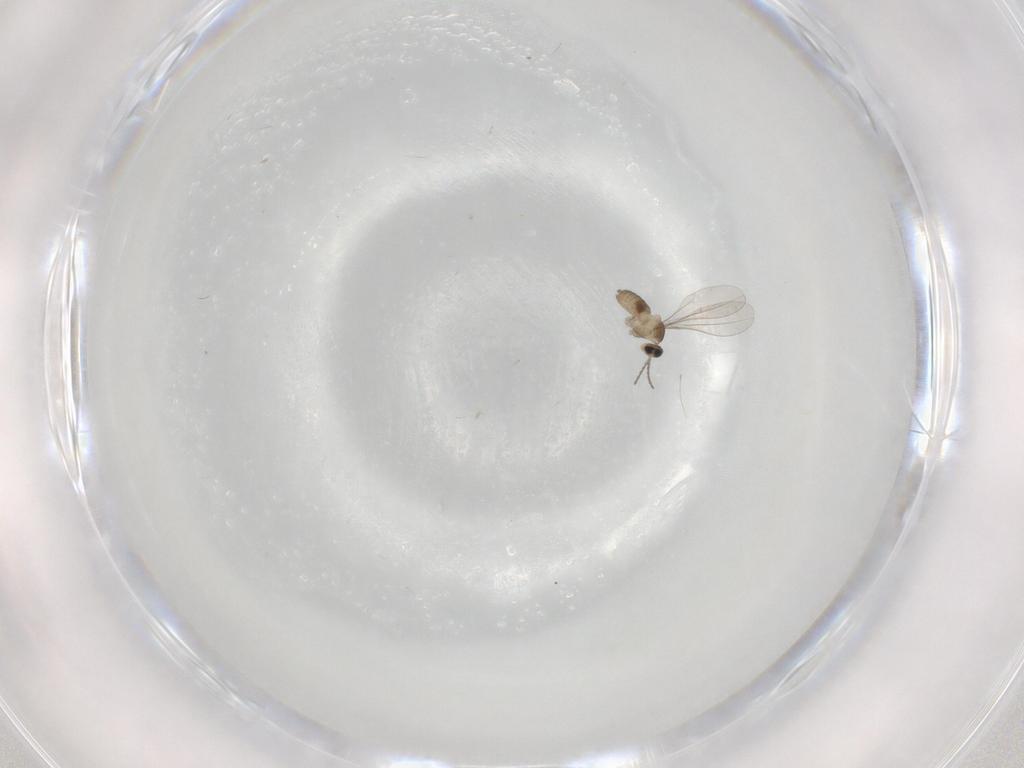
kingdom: Animalia
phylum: Arthropoda
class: Insecta
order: Diptera
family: Cecidomyiidae
